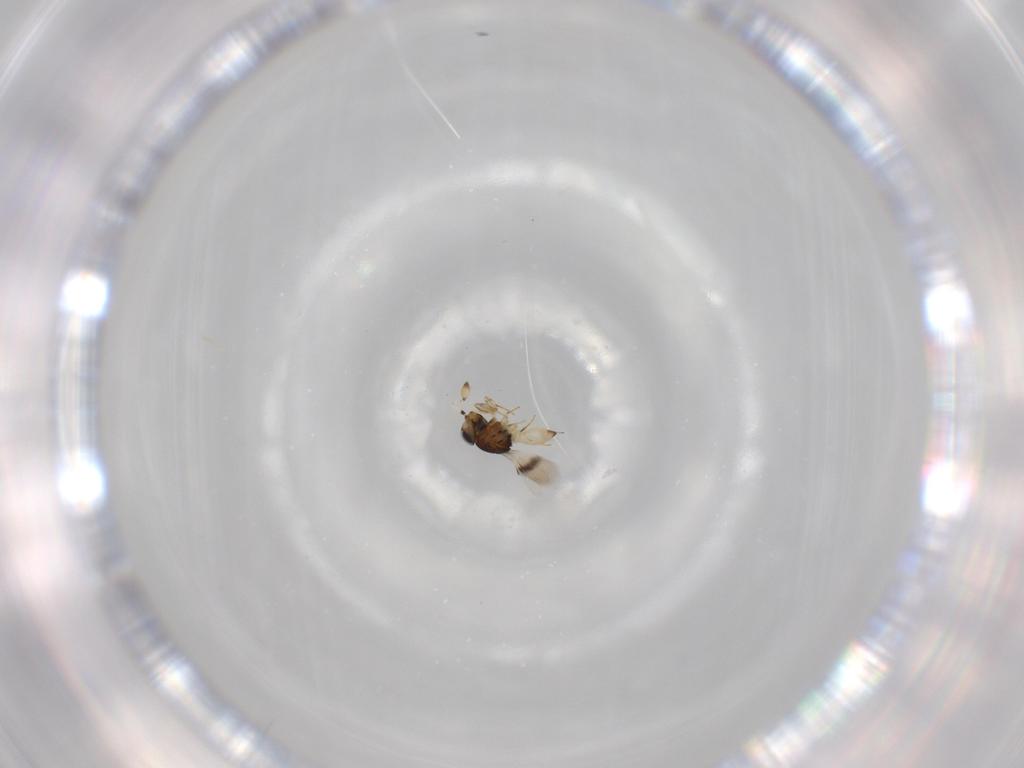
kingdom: Animalia
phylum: Arthropoda
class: Insecta
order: Hymenoptera
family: Scelionidae
